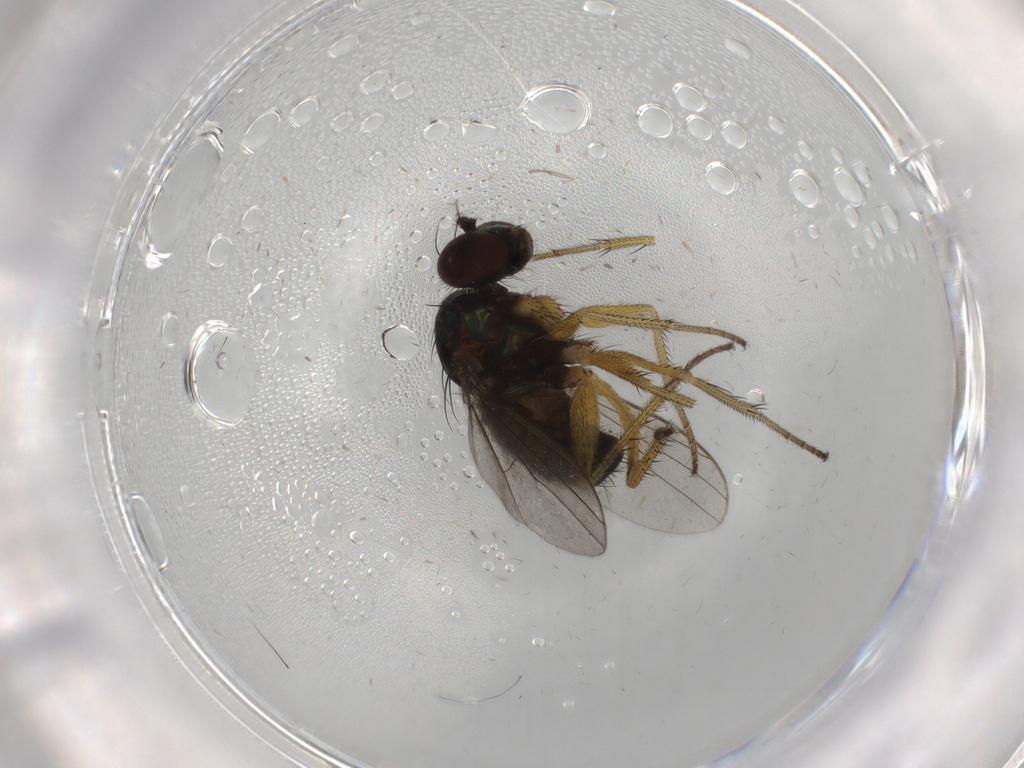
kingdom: Animalia
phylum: Arthropoda
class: Insecta
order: Diptera
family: Dolichopodidae
